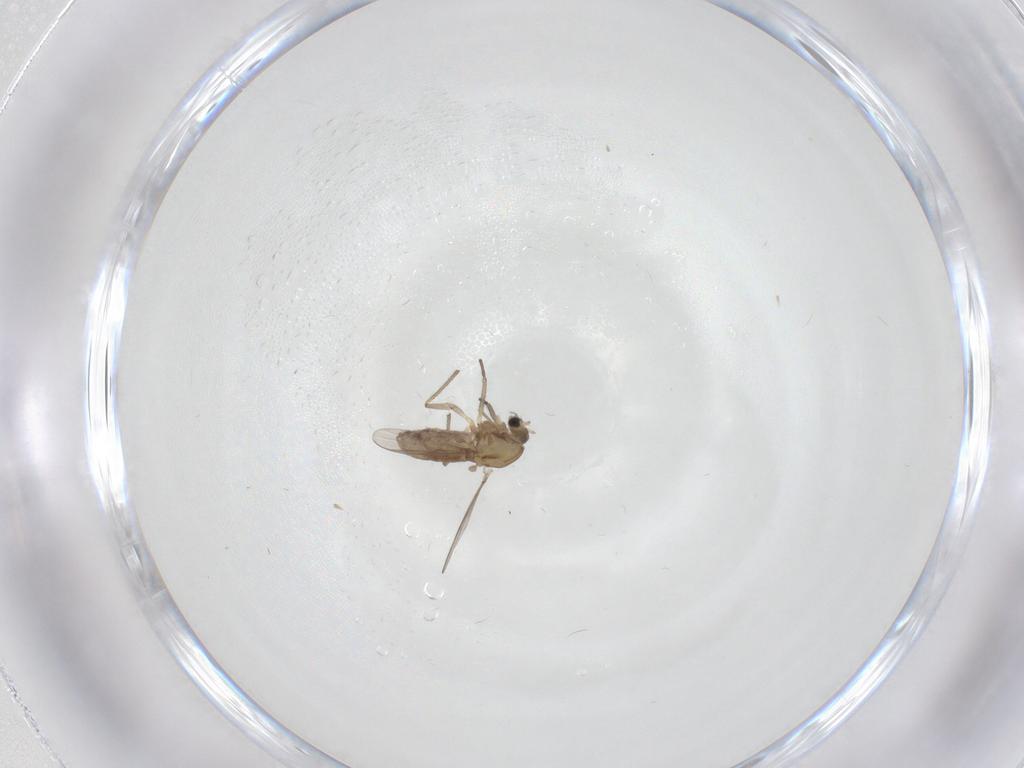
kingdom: Animalia
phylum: Arthropoda
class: Insecta
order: Diptera
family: Chironomidae
